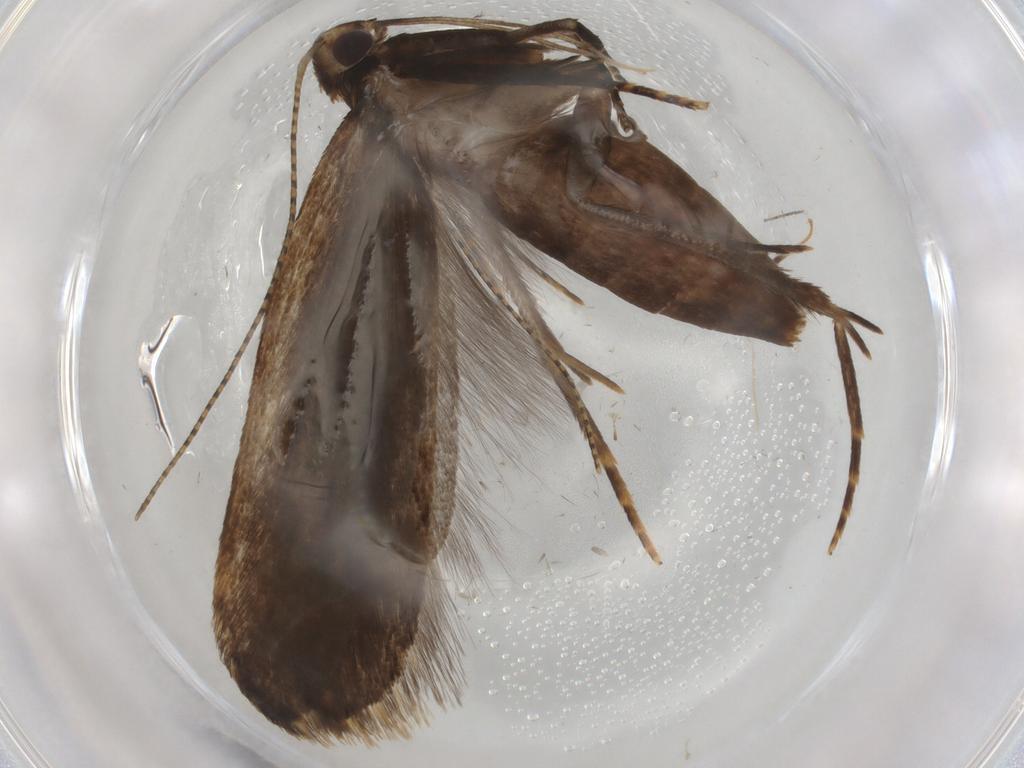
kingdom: Animalia
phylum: Arthropoda
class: Insecta
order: Lepidoptera
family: Gelechiidae
